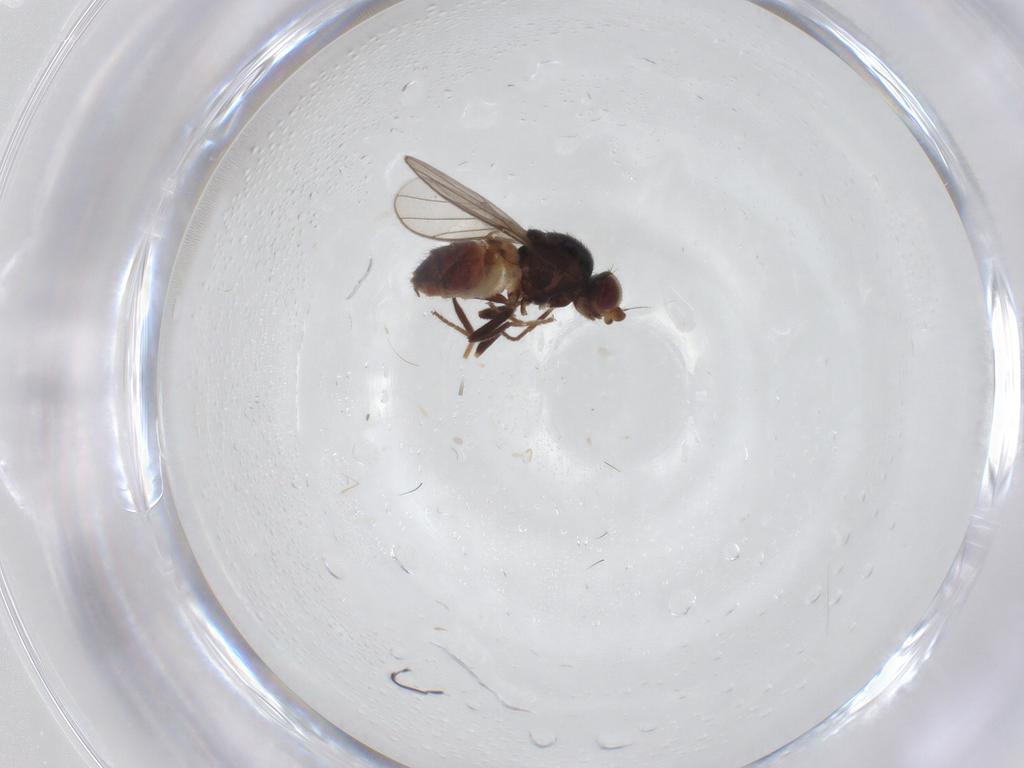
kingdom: Animalia
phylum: Arthropoda
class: Insecta
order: Diptera
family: Chloropidae
